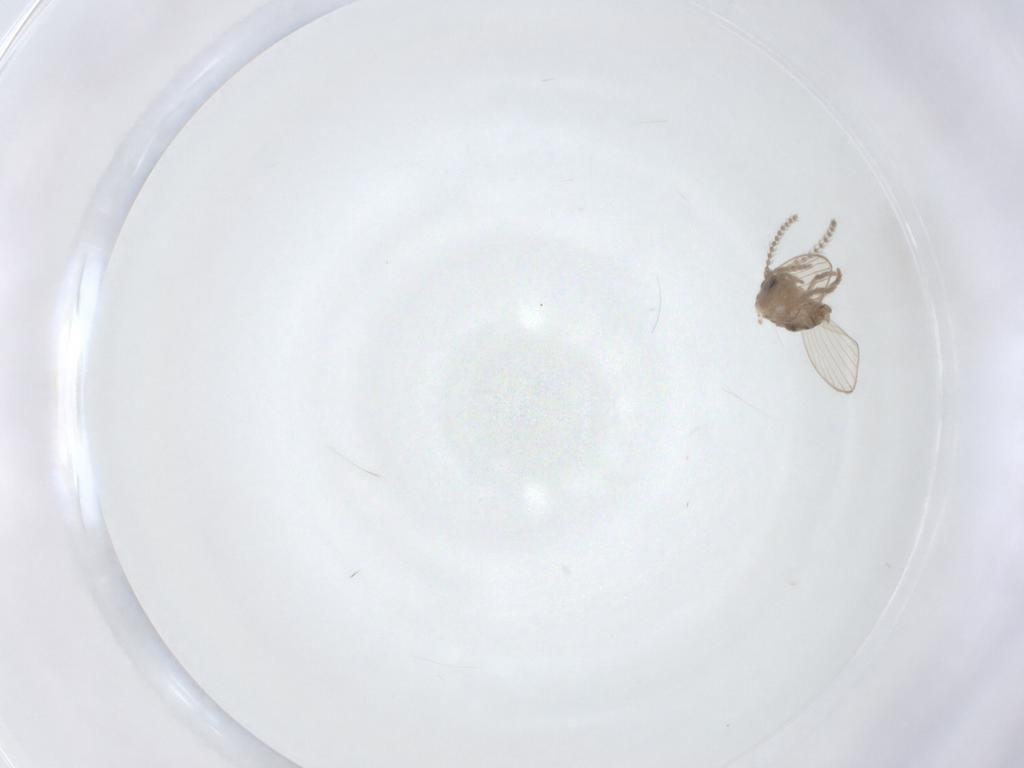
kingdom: Animalia
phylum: Arthropoda
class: Insecta
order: Diptera
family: Psychodidae
